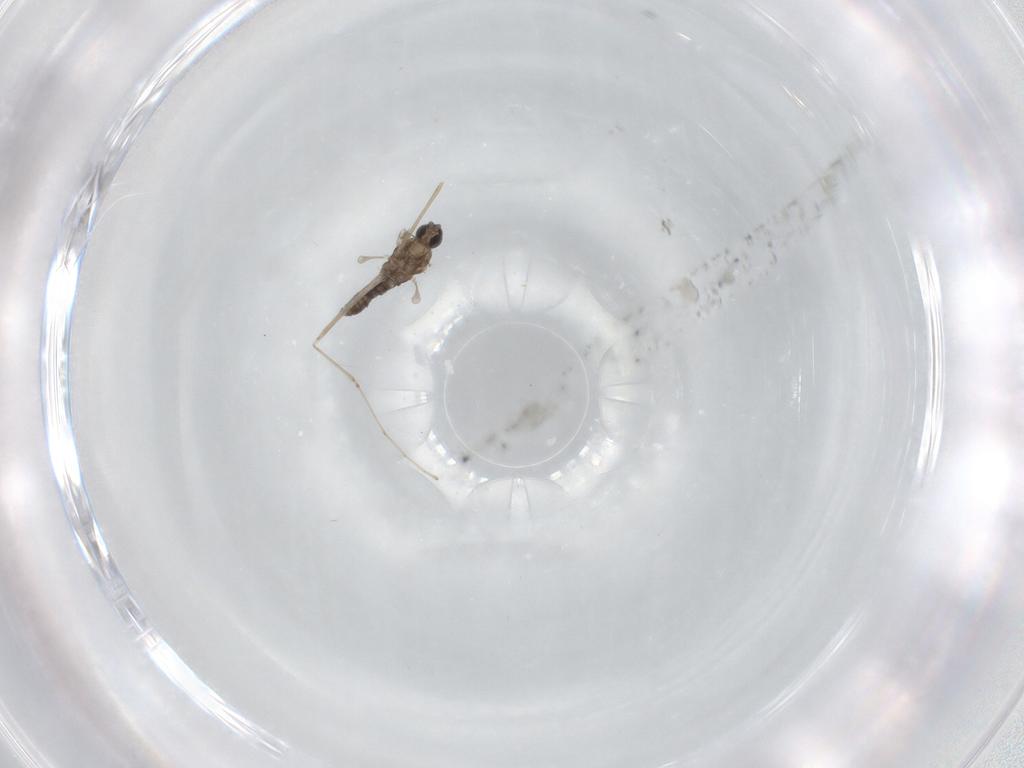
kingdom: Animalia
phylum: Arthropoda
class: Insecta
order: Diptera
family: Cecidomyiidae
